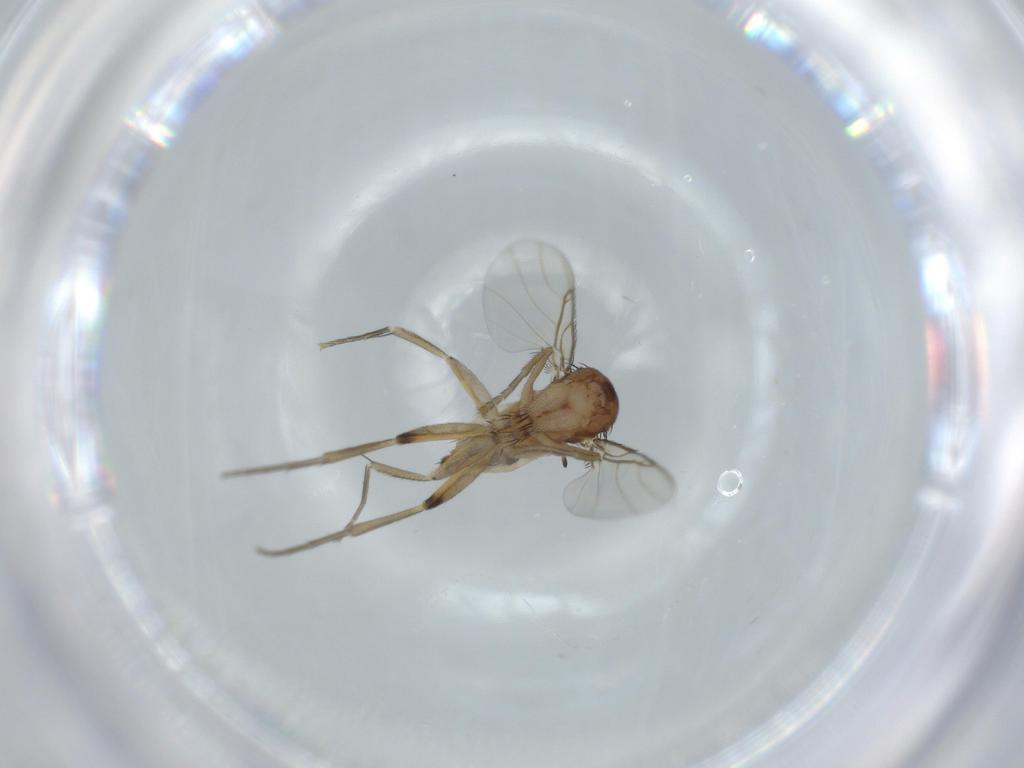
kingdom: Animalia
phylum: Arthropoda
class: Insecta
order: Diptera
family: Phoridae
